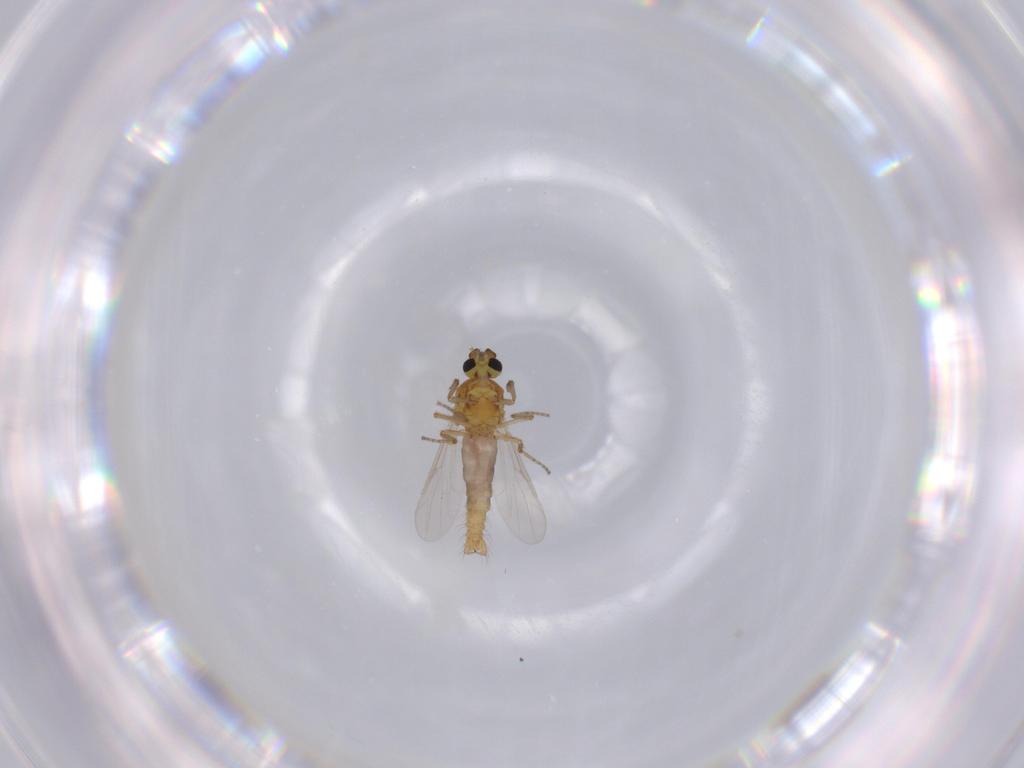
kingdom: Animalia
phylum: Arthropoda
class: Insecta
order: Diptera
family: Ceratopogonidae
